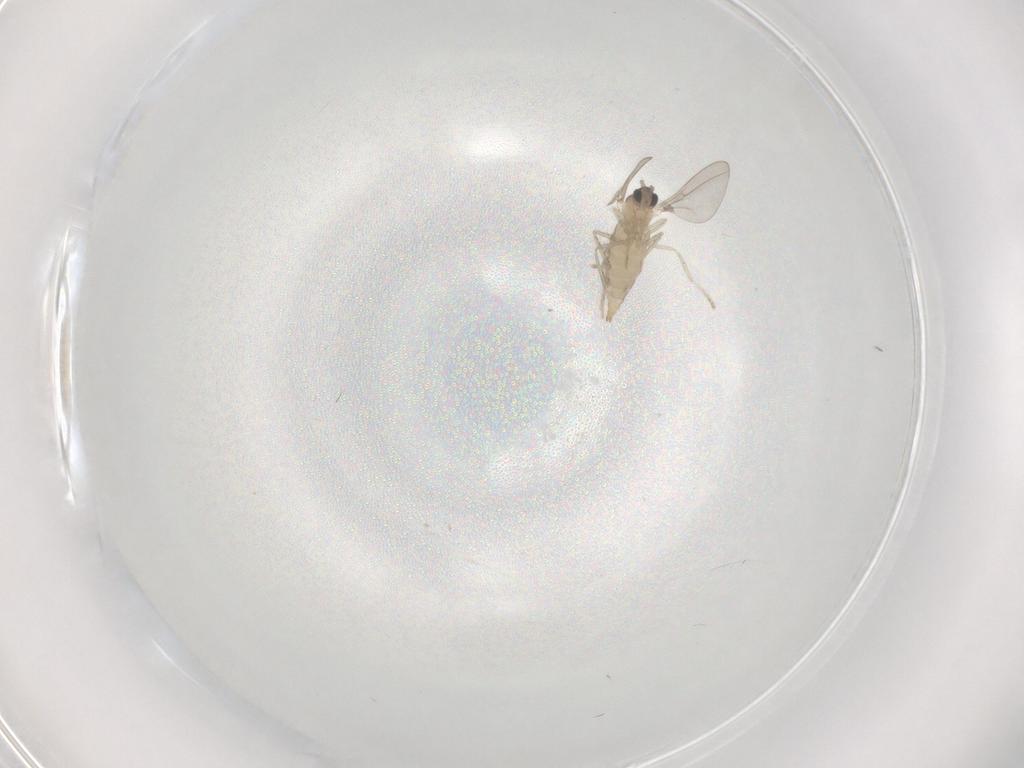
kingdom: Animalia
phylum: Arthropoda
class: Insecta
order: Diptera
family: Cecidomyiidae
